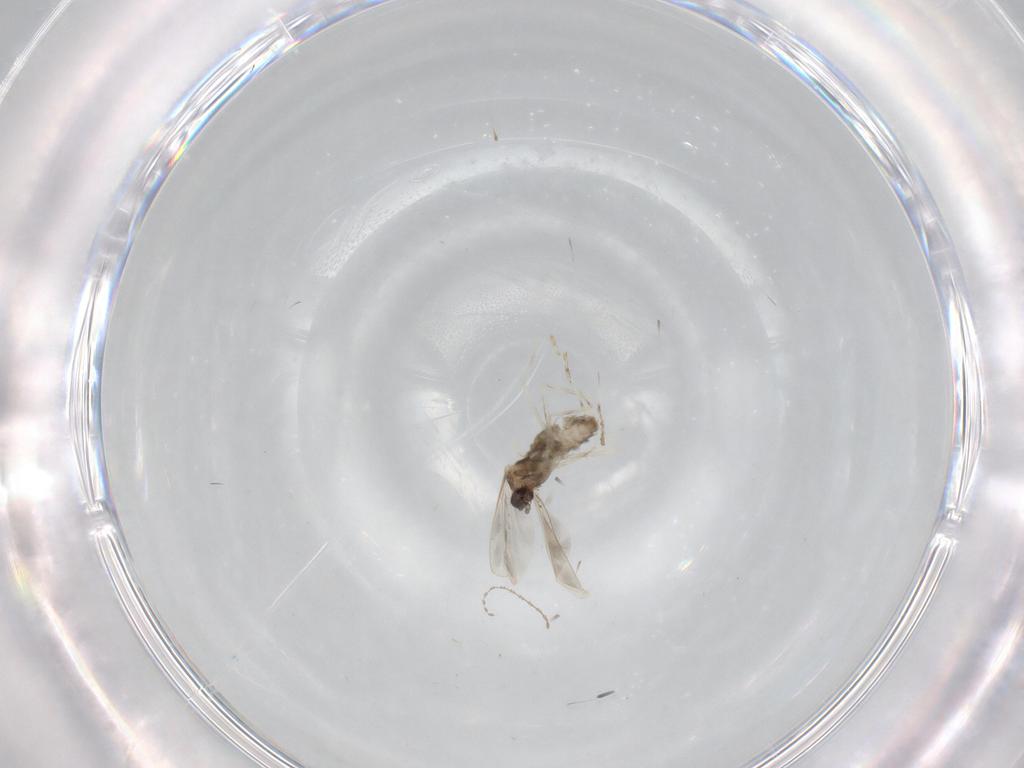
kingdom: Animalia
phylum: Arthropoda
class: Insecta
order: Diptera
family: Cecidomyiidae
